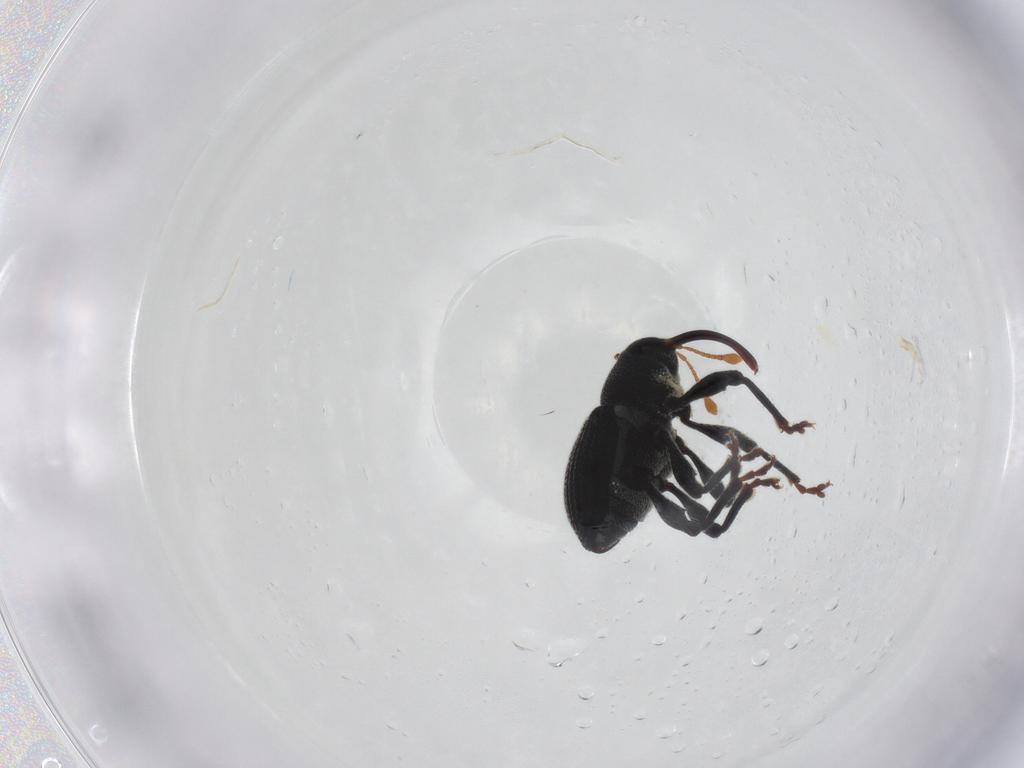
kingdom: Animalia
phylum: Arthropoda
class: Insecta
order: Coleoptera
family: Curculionidae
